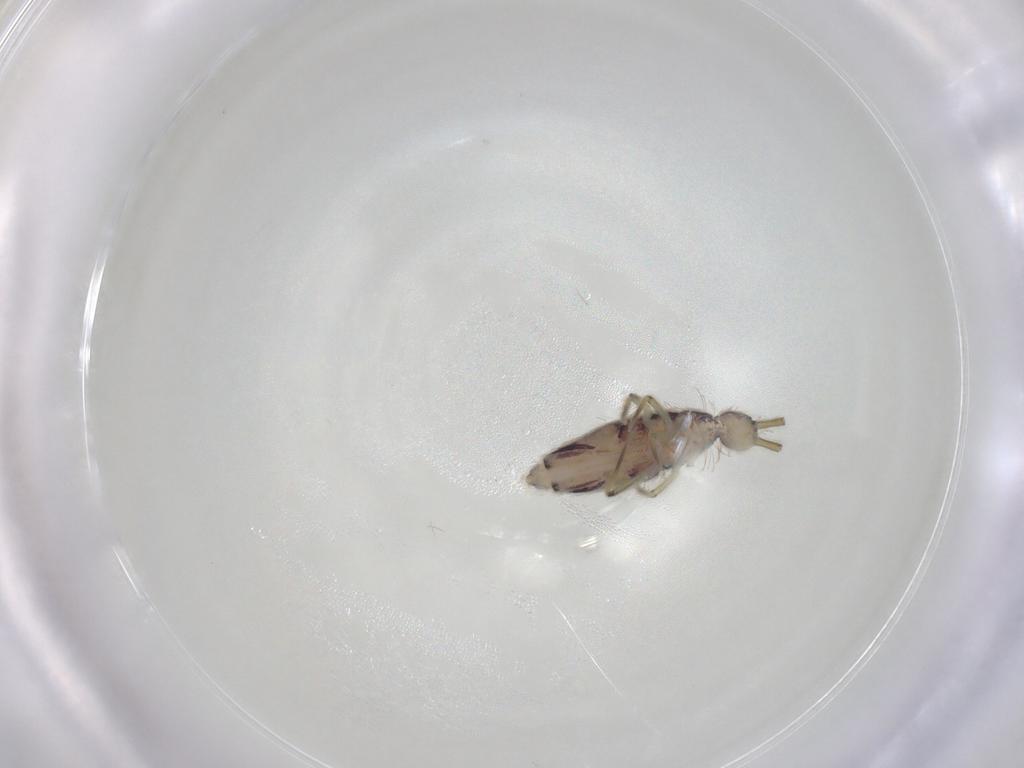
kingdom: Animalia
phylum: Arthropoda
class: Collembola
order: Entomobryomorpha
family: Entomobryidae
